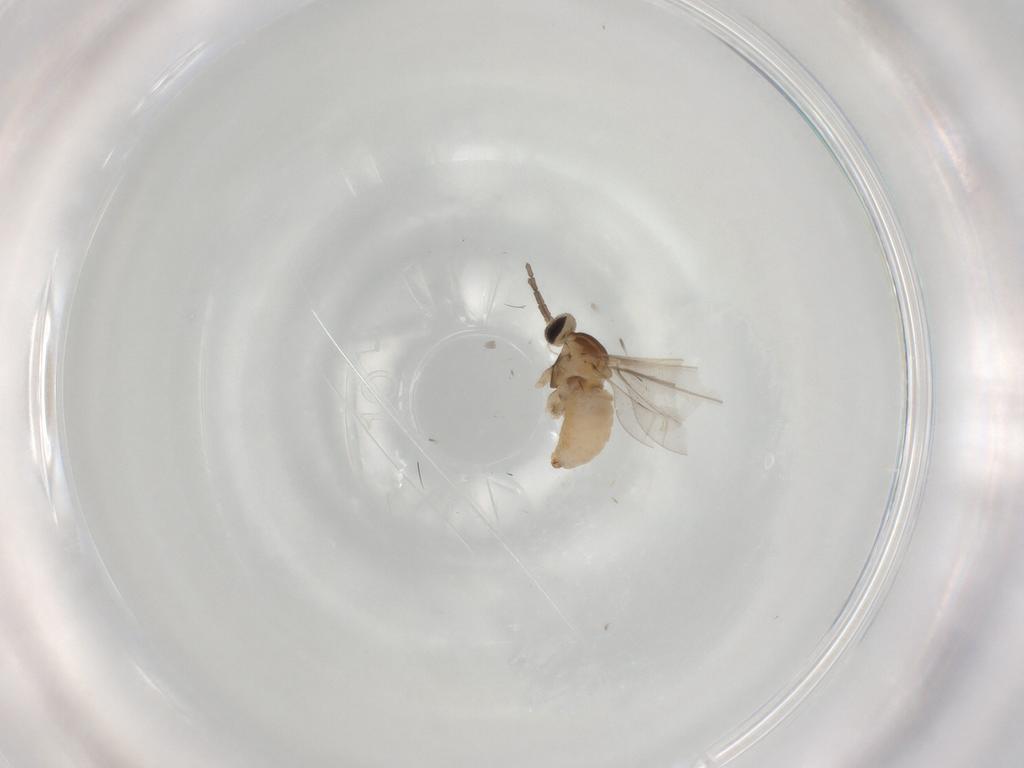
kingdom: Animalia
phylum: Arthropoda
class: Insecta
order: Diptera
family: Cecidomyiidae
